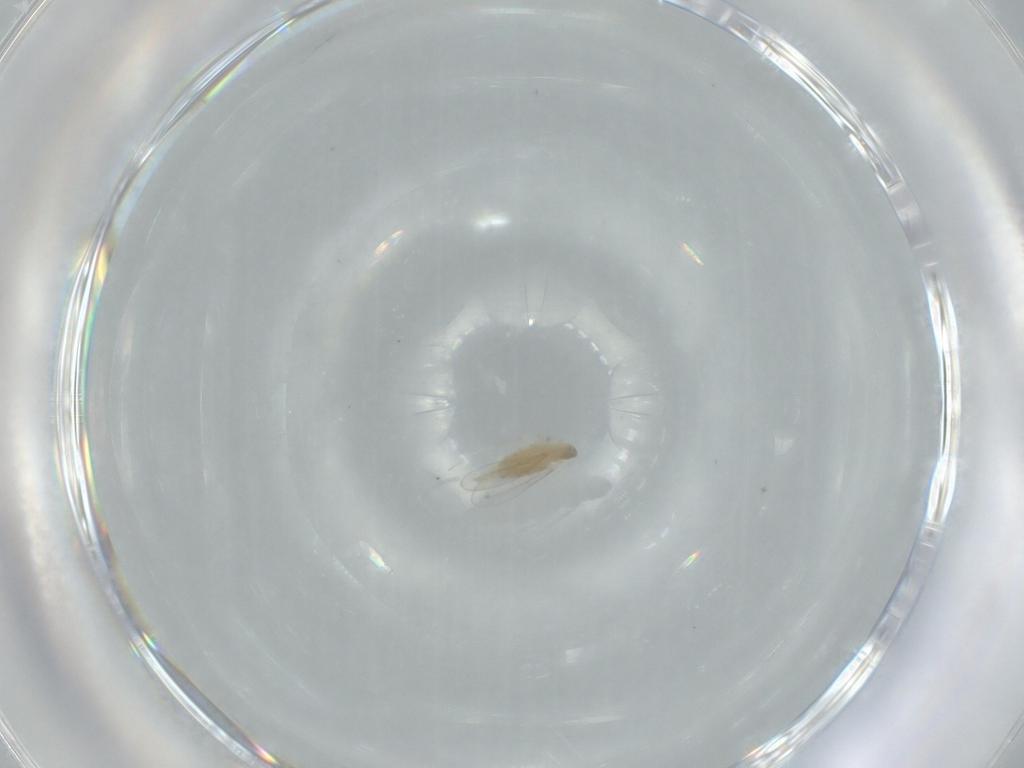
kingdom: Animalia
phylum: Arthropoda
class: Insecta
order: Diptera
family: Cecidomyiidae
